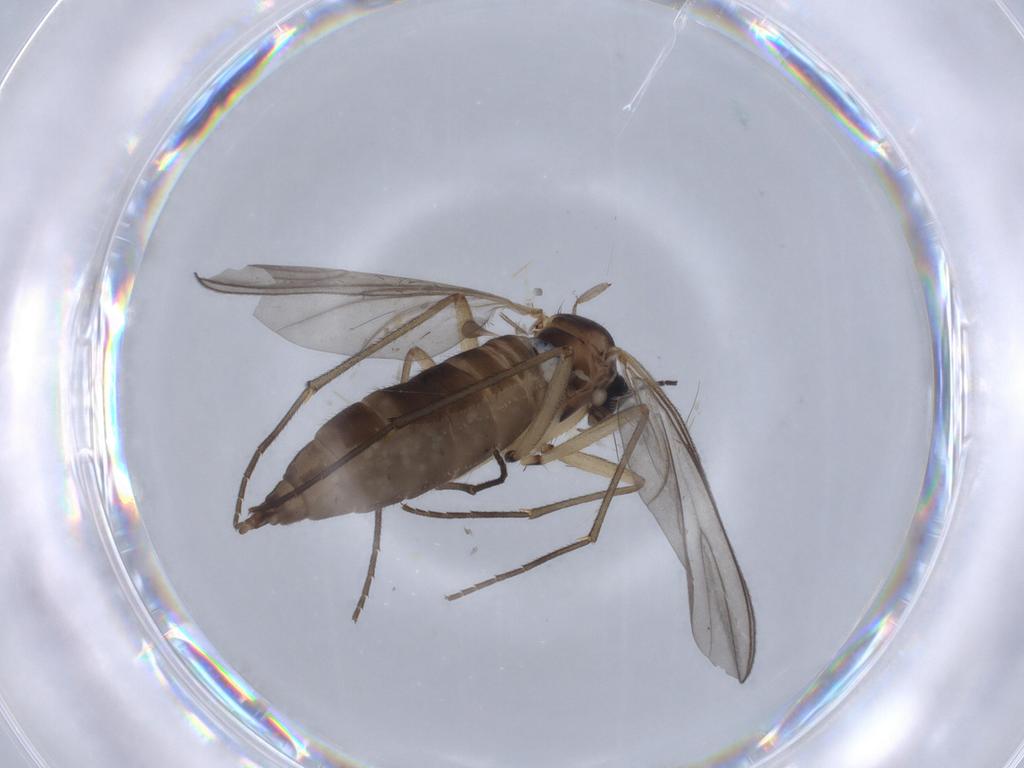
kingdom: Animalia
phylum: Arthropoda
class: Insecta
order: Diptera
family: Sciaridae
